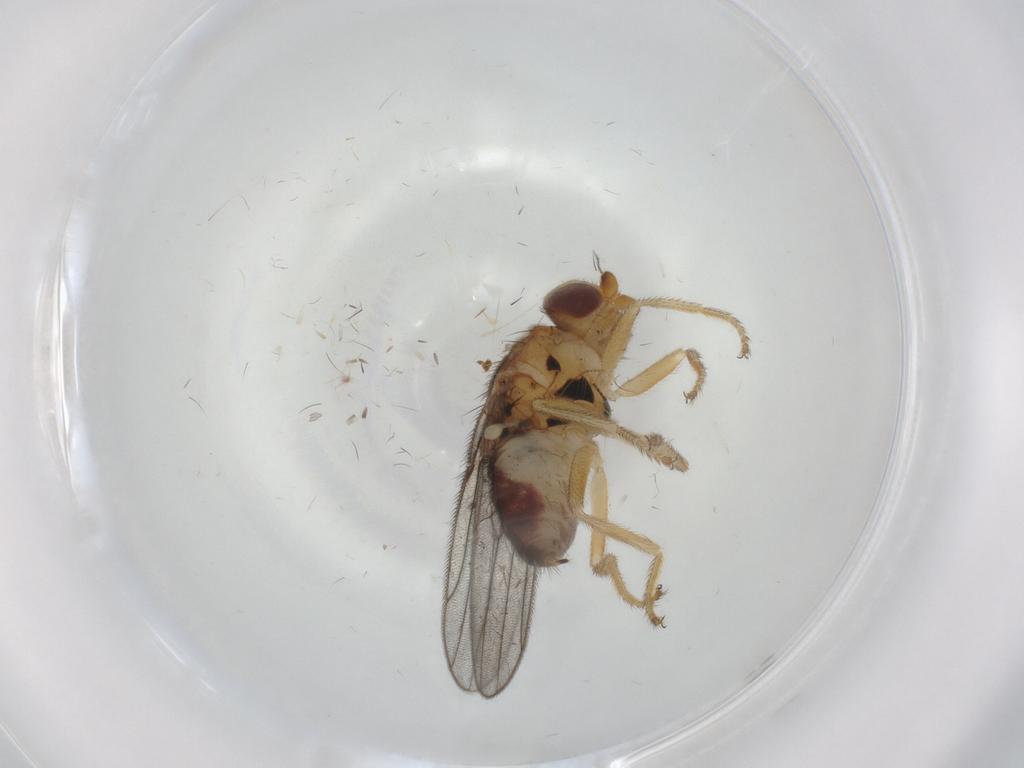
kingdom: Animalia
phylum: Arthropoda
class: Insecta
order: Diptera
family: Chloropidae
